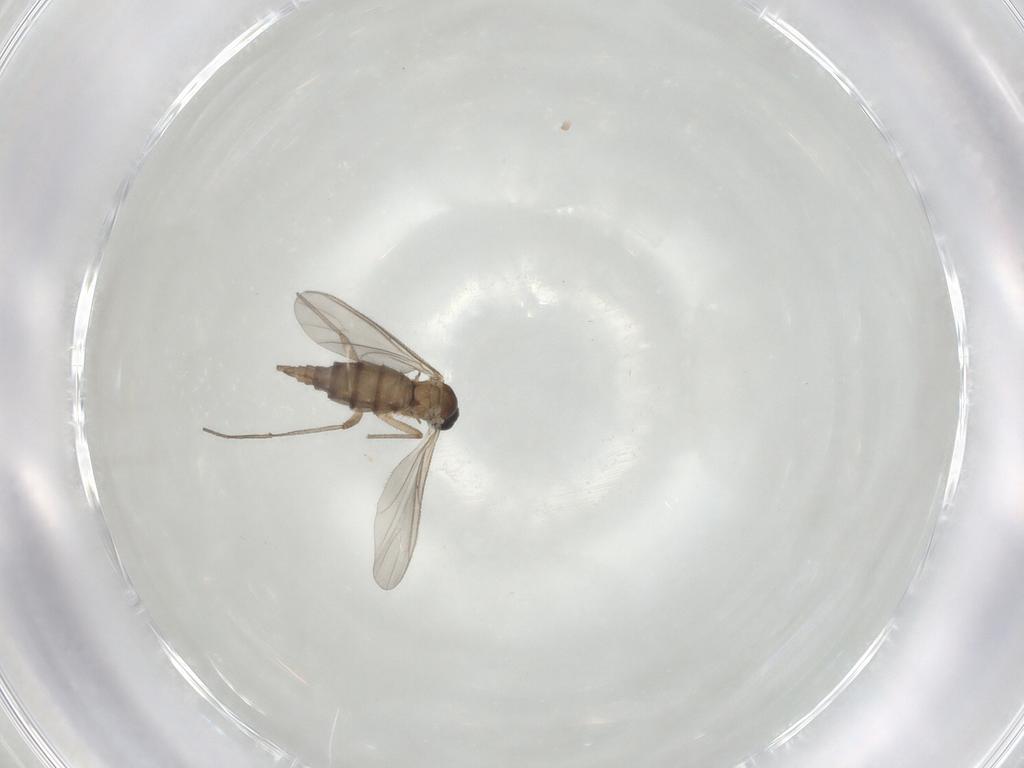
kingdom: Animalia
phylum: Arthropoda
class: Insecta
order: Diptera
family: Sciaridae
